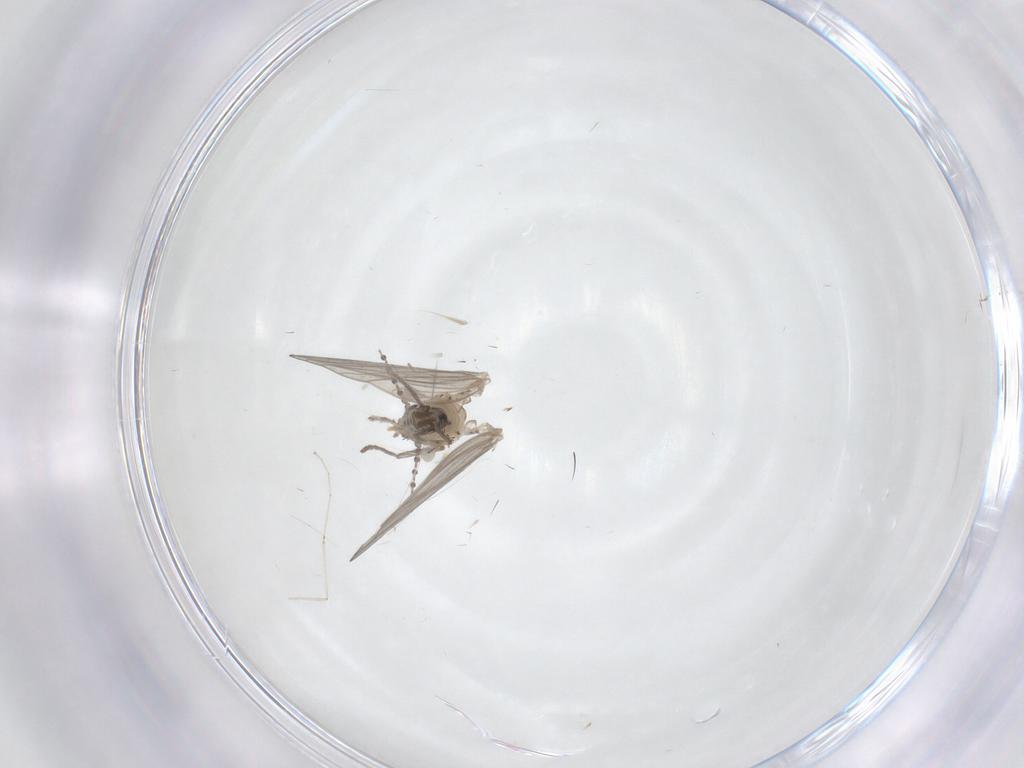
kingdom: Animalia
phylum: Arthropoda
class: Insecta
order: Diptera
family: Psychodidae
